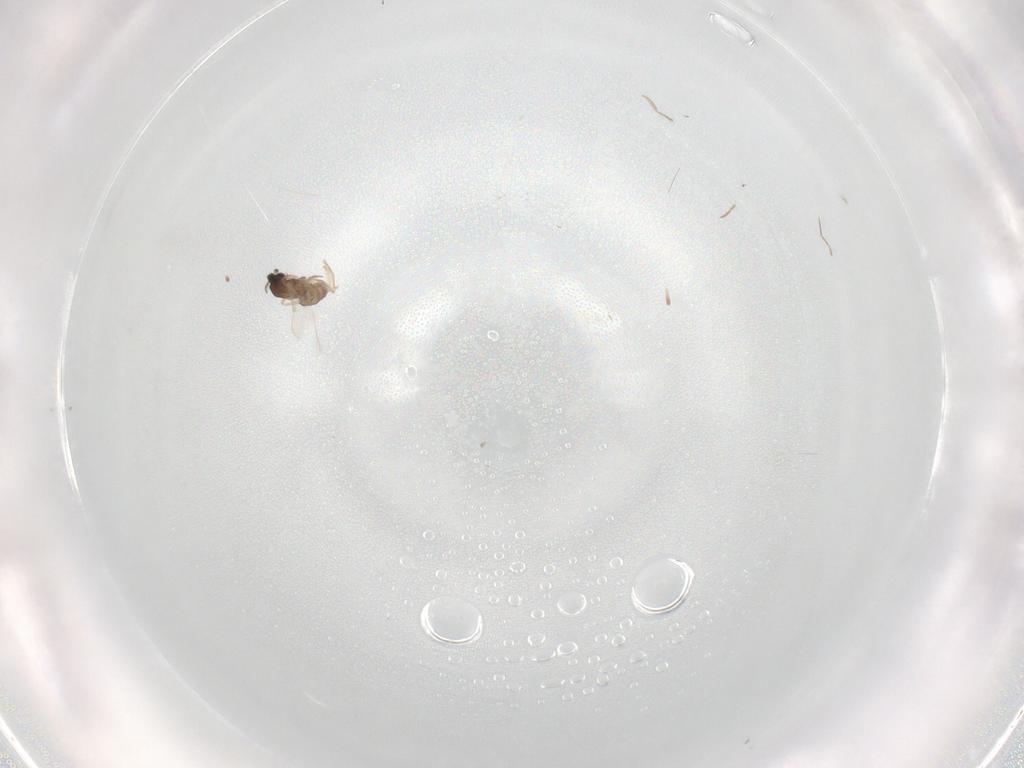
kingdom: Animalia
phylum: Arthropoda
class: Insecta
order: Diptera
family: Cecidomyiidae
